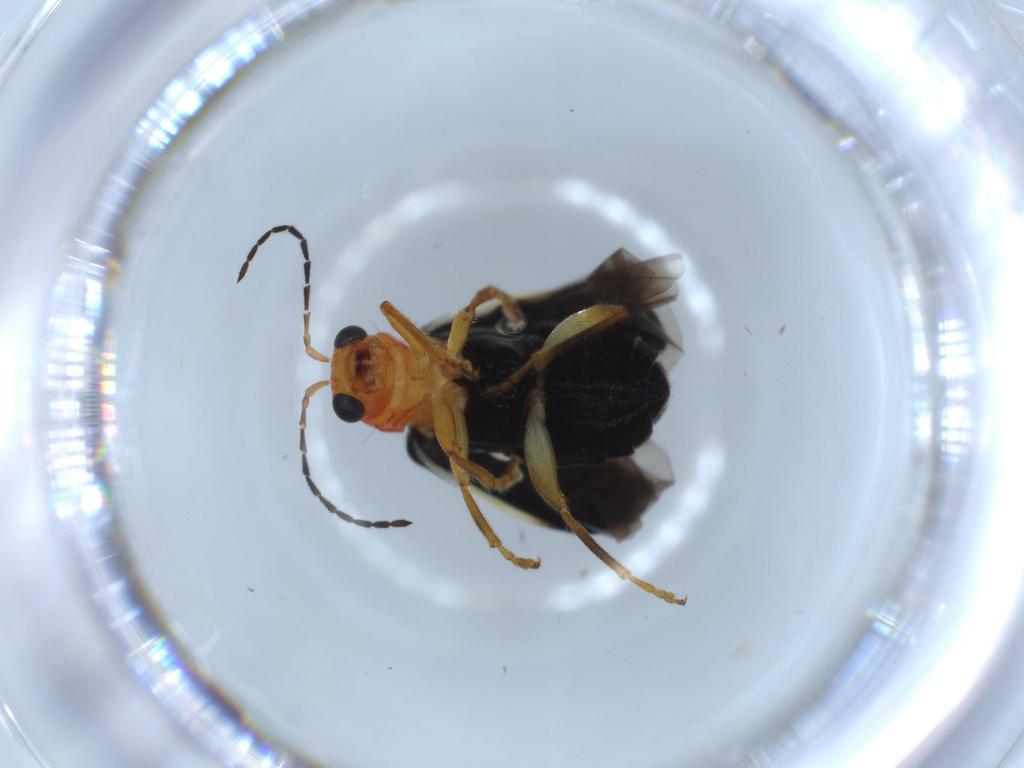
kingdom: Animalia
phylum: Arthropoda
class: Insecta
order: Coleoptera
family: Chrysomelidae
